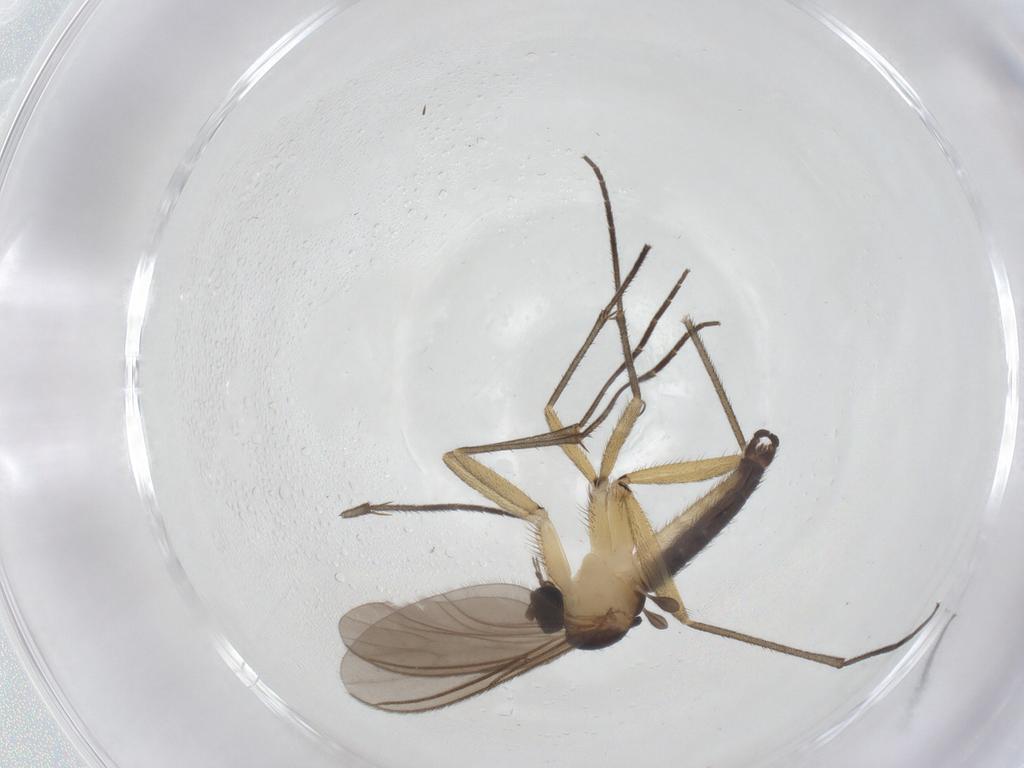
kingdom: Animalia
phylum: Arthropoda
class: Insecta
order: Diptera
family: Sciaridae
